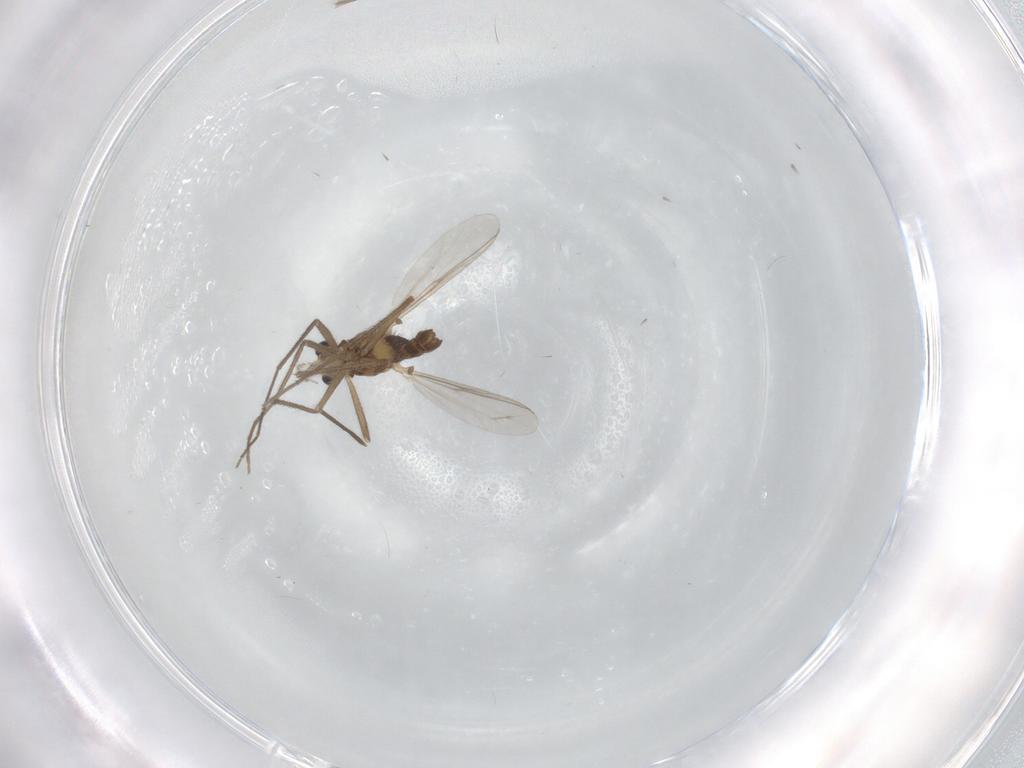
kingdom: Animalia
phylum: Arthropoda
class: Insecta
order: Diptera
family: Chironomidae
